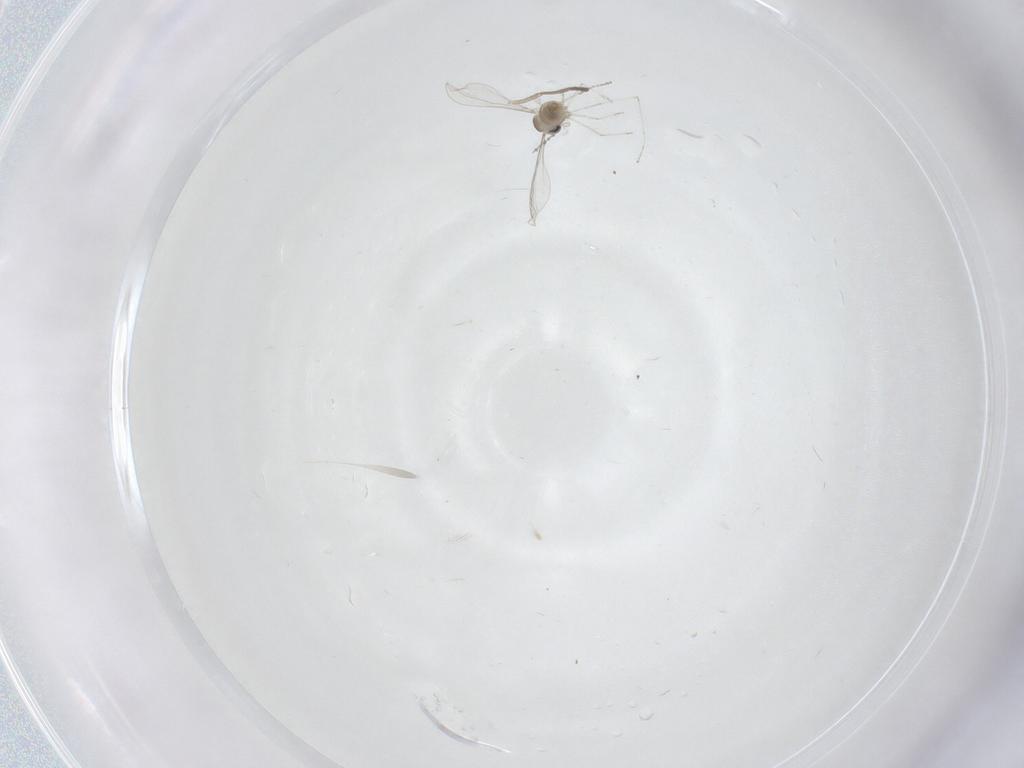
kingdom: Animalia
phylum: Arthropoda
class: Insecta
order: Diptera
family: Cecidomyiidae
